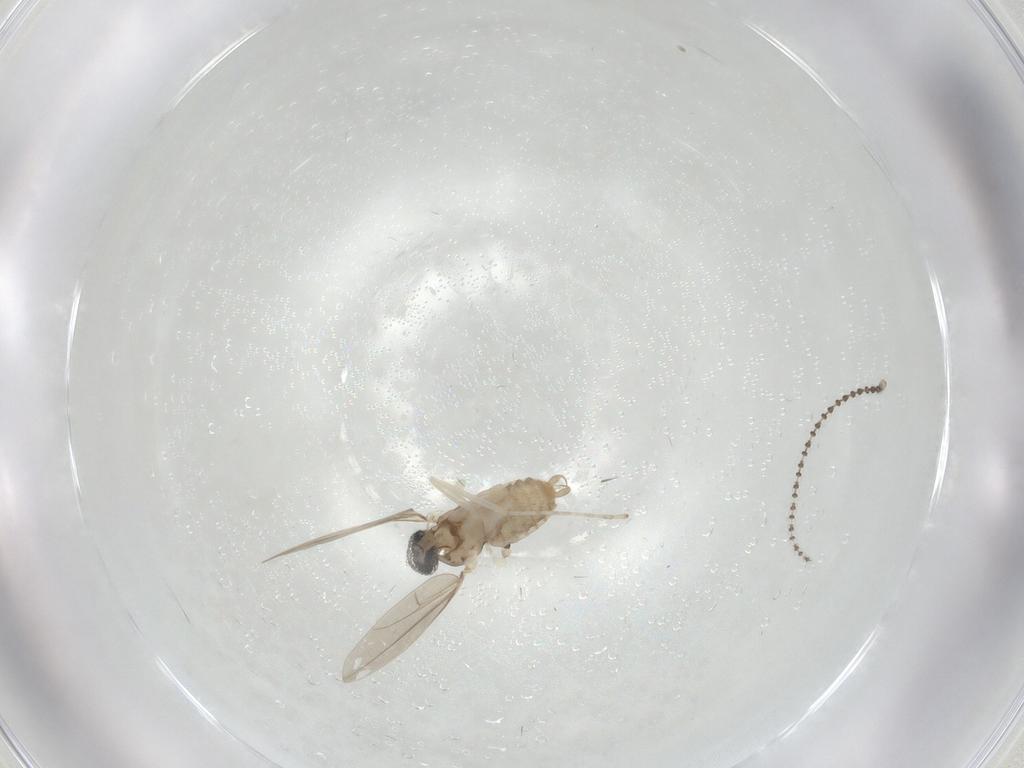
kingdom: Animalia
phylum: Arthropoda
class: Insecta
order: Diptera
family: Cecidomyiidae
